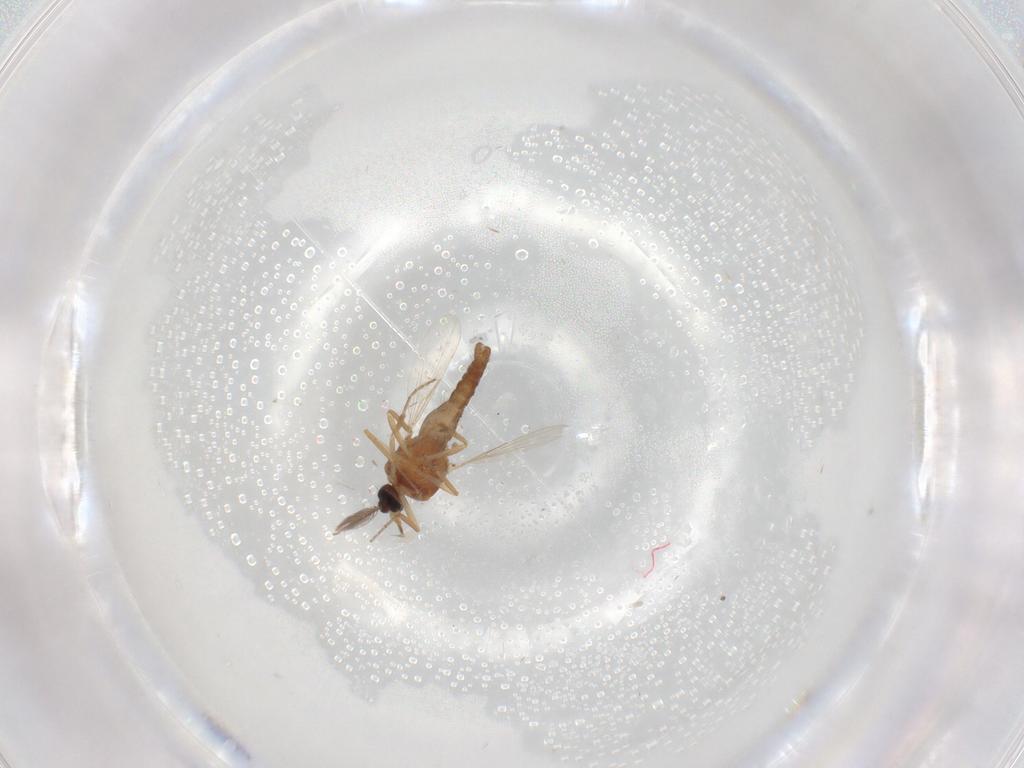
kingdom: Animalia
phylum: Arthropoda
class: Insecta
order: Diptera
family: Ceratopogonidae
